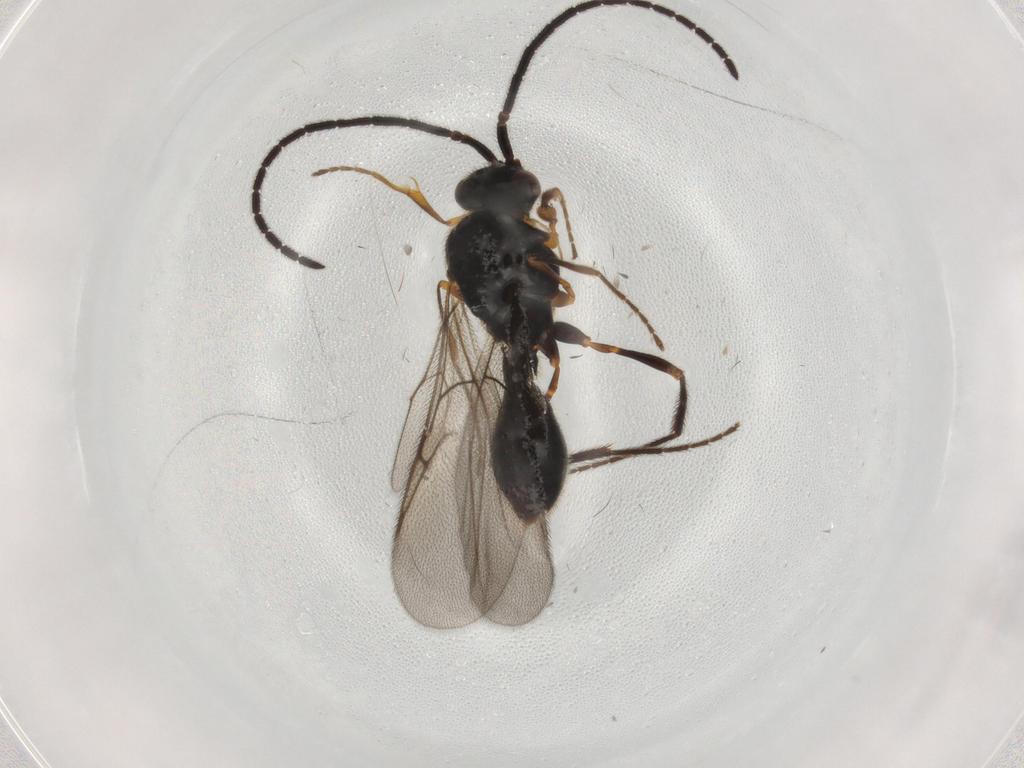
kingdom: Animalia
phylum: Arthropoda
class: Insecta
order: Hymenoptera
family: Diapriidae
